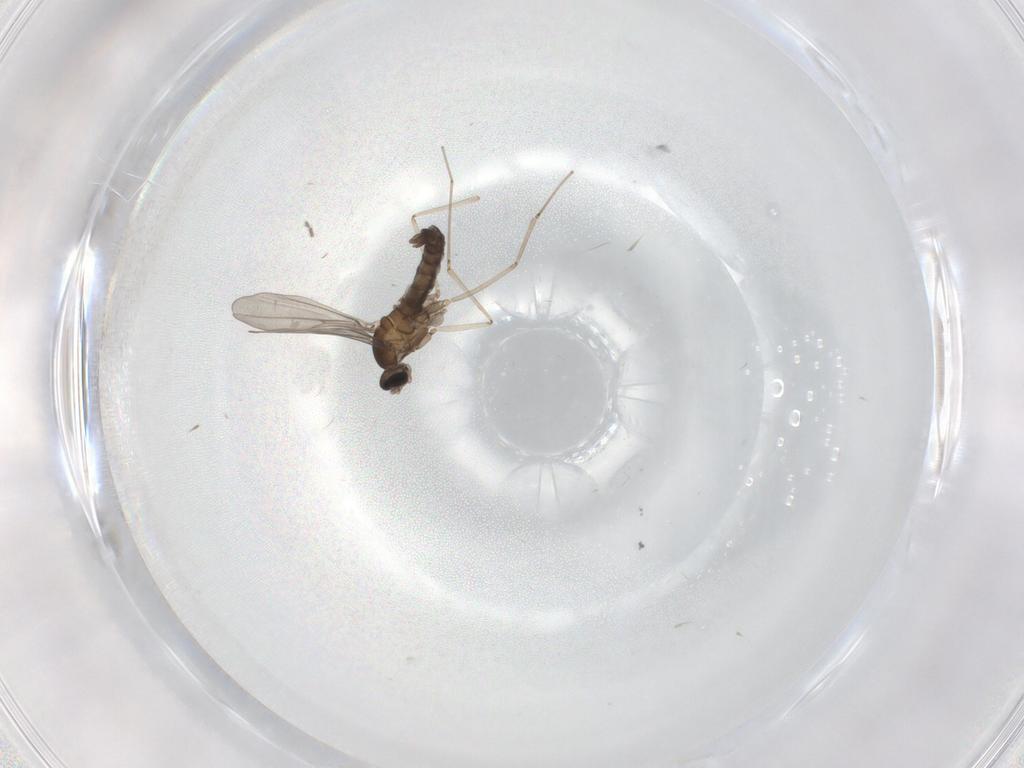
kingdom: Animalia
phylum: Arthropoda
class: Insecta
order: Diptera
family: Cecidomyiidae
